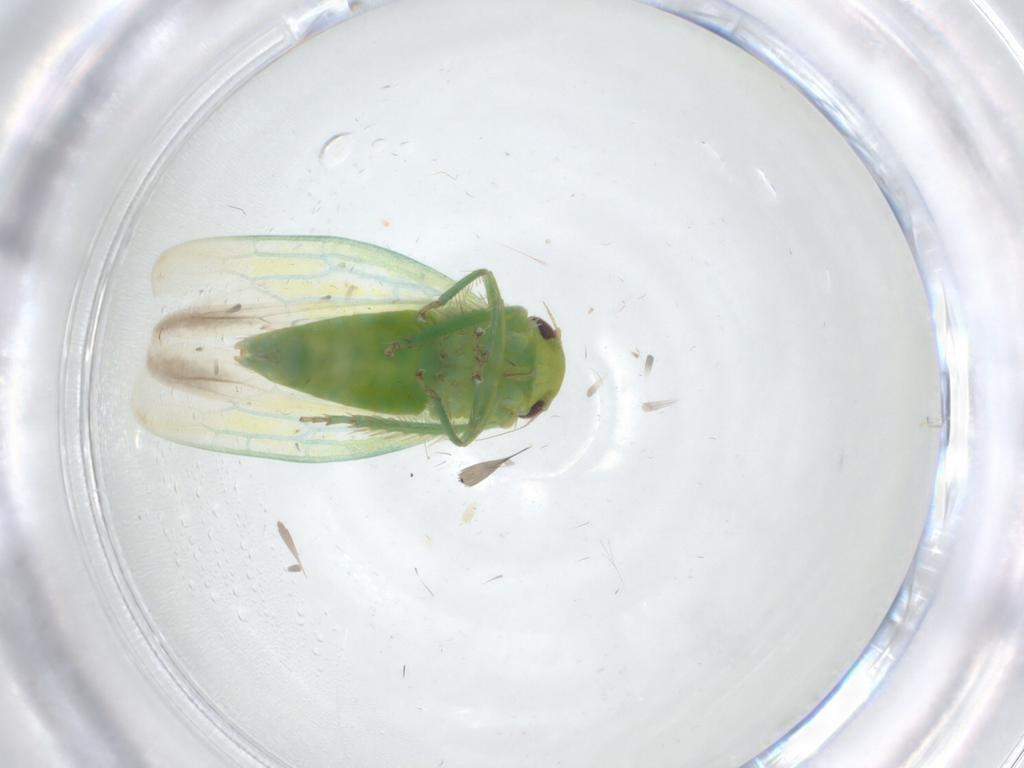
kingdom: Animalia
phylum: Arthropoda
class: Insecta
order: Hemiptera
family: Cicadellidae
